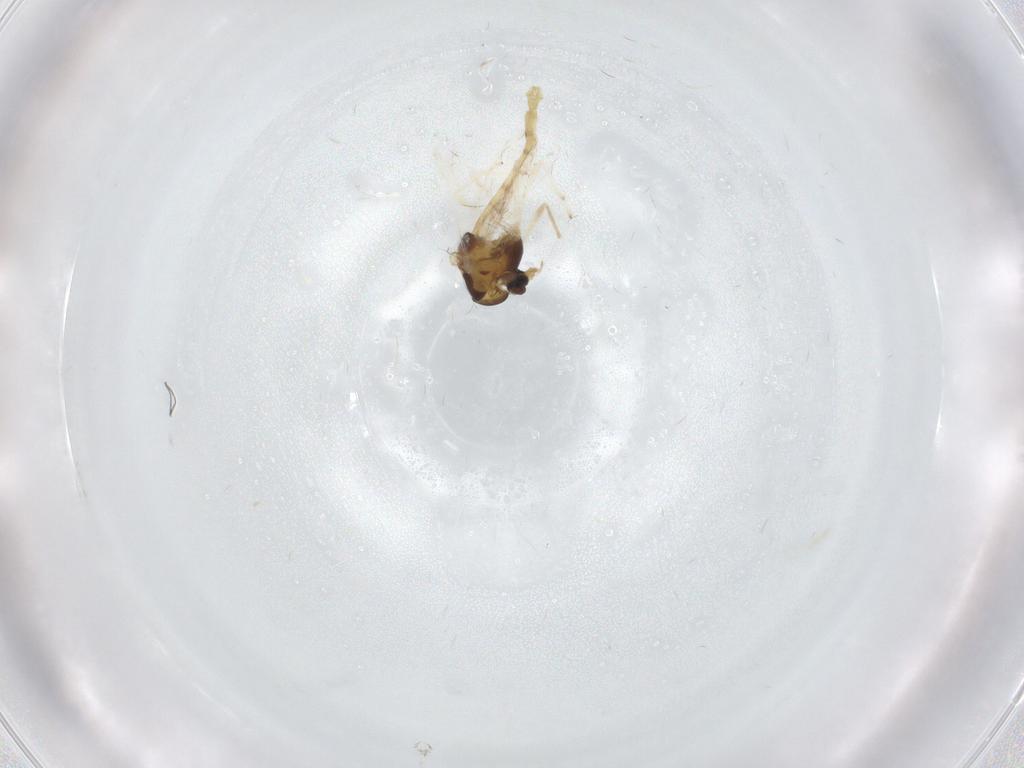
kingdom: Animalia
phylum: Arthropoda
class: Insecta
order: Diptera
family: Chironomidae
